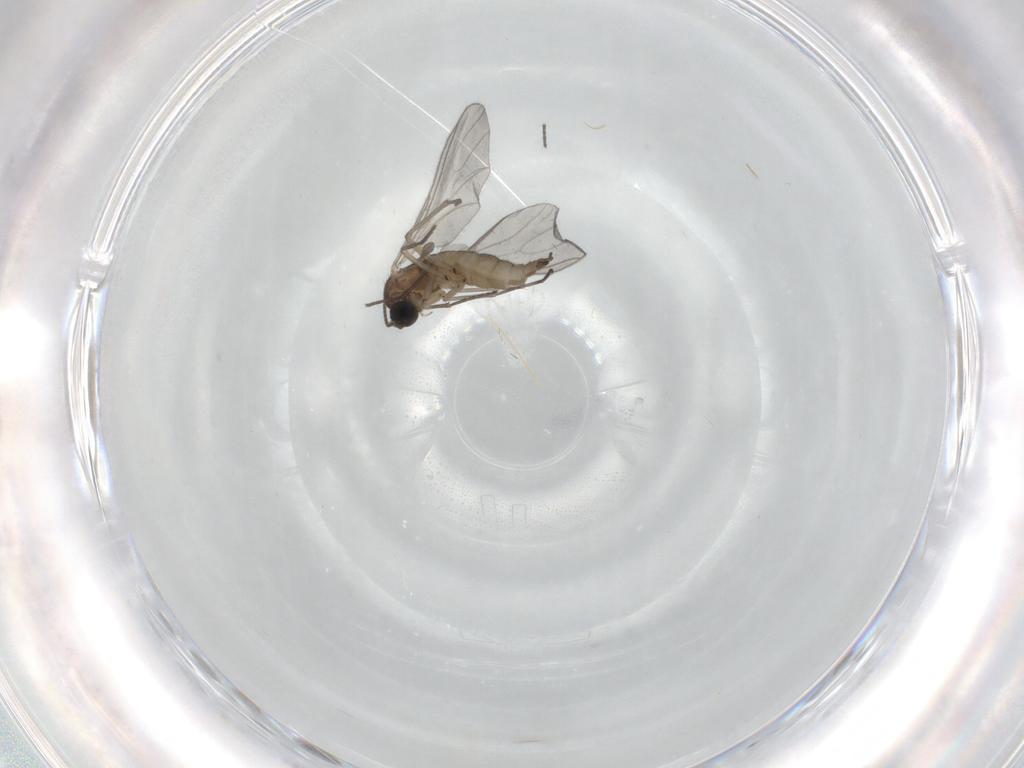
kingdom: Animalia
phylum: Arthropoda
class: Insecta
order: Diptera
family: Sciaridae
